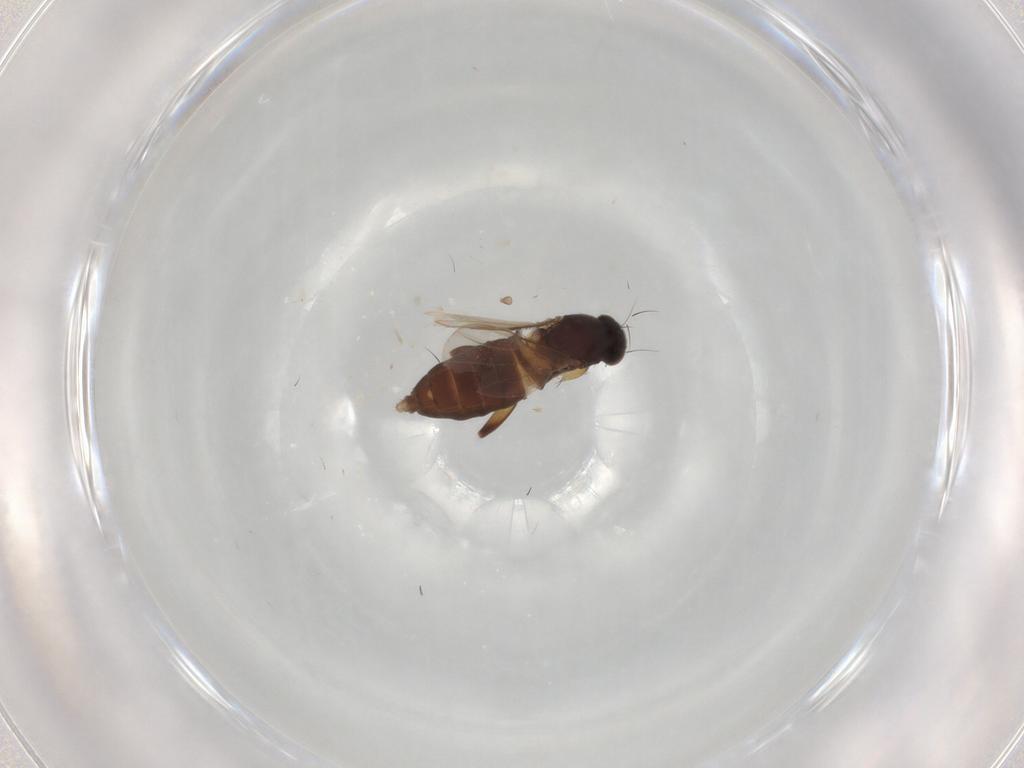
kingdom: Animalia
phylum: Arthropoda
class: Insecta
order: Diptera
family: Phoridae
